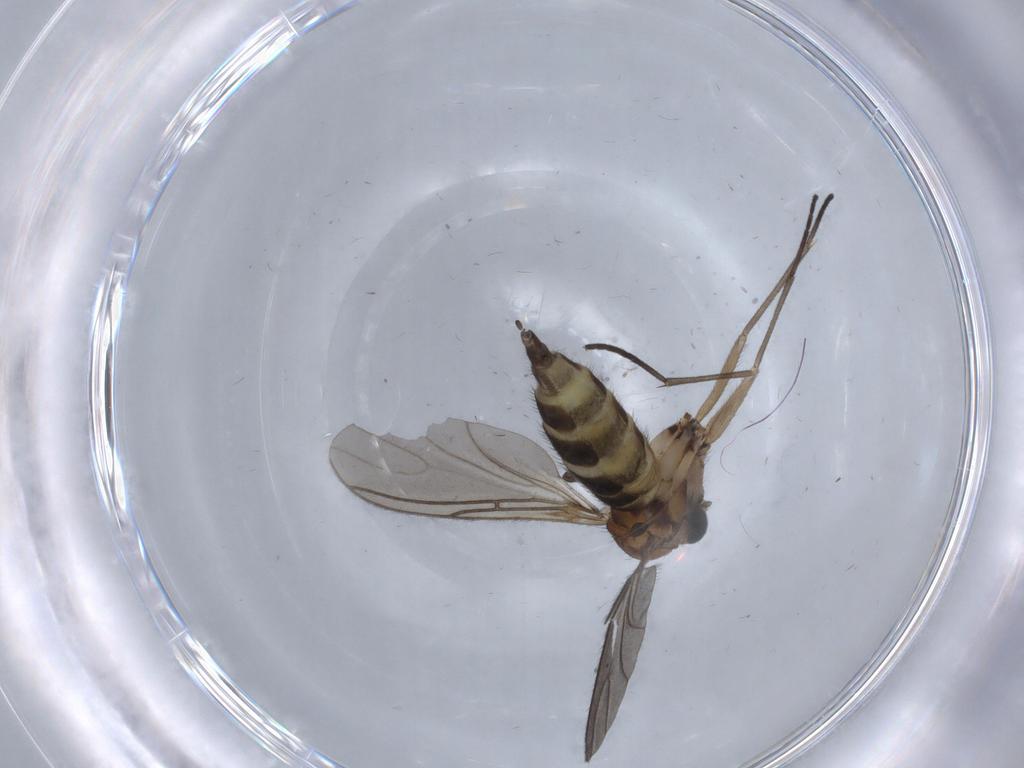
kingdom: Animalia
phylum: Arthropoda
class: Insecta
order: Diptera
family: Sciaridae
